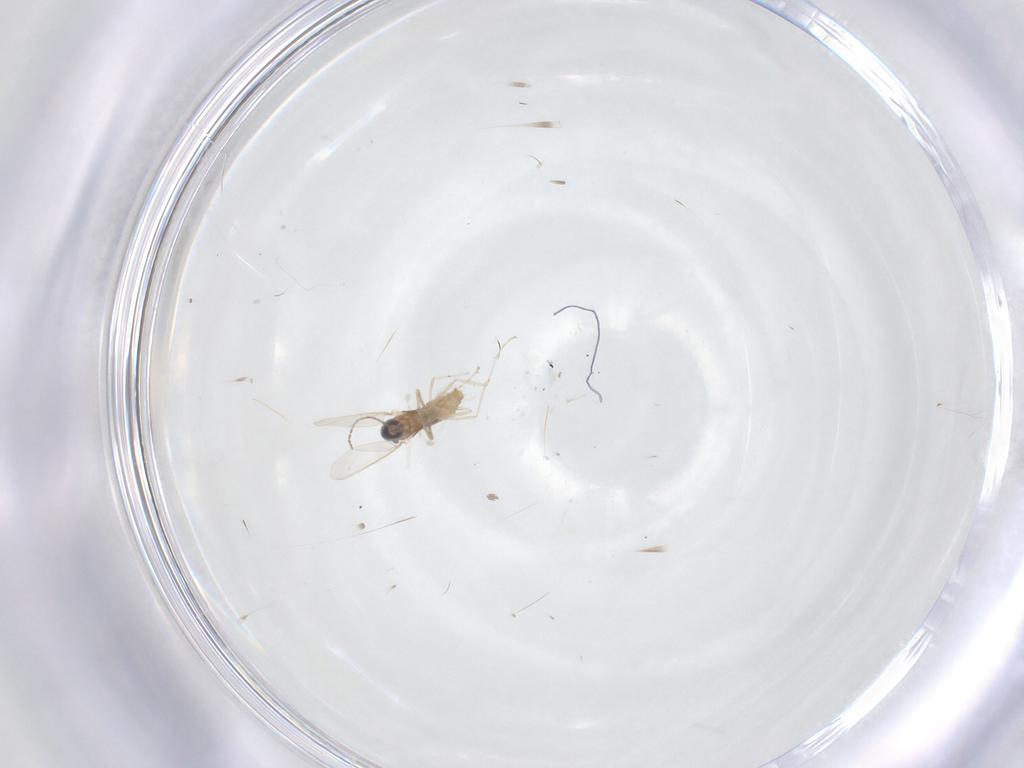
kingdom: Animalia
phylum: Arthropoda
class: Insecta
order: Diptera
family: Cecidomyiidae
